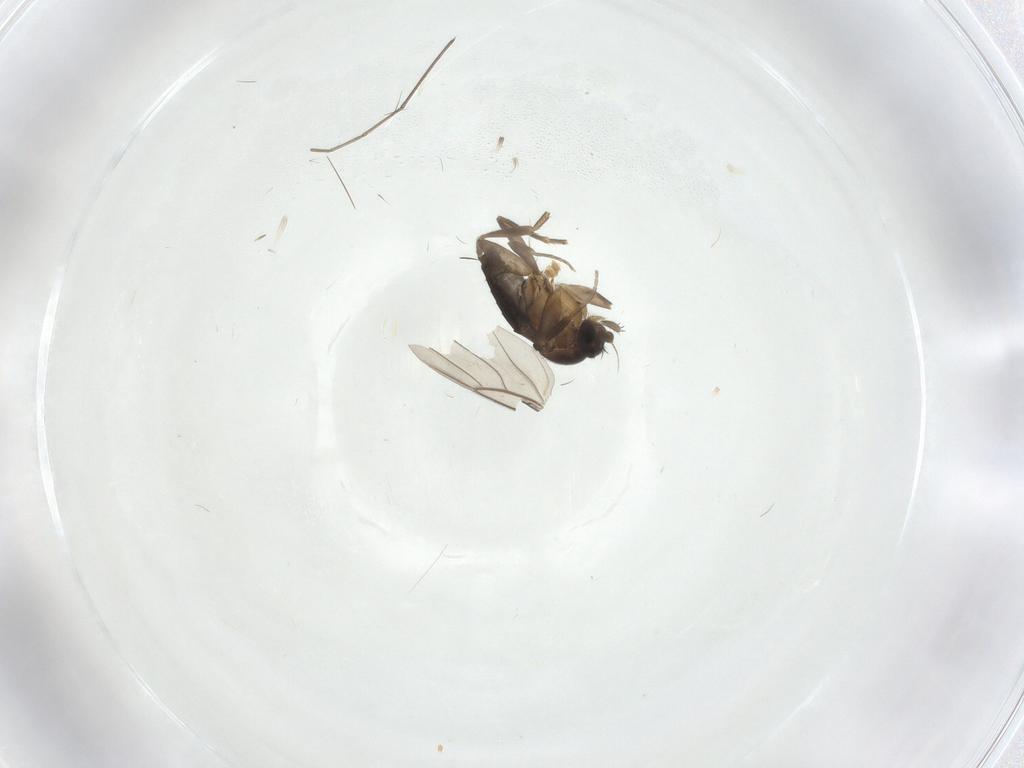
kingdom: Animalia
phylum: Arthropoda
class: Insecta
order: Diptera
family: Phoridae
